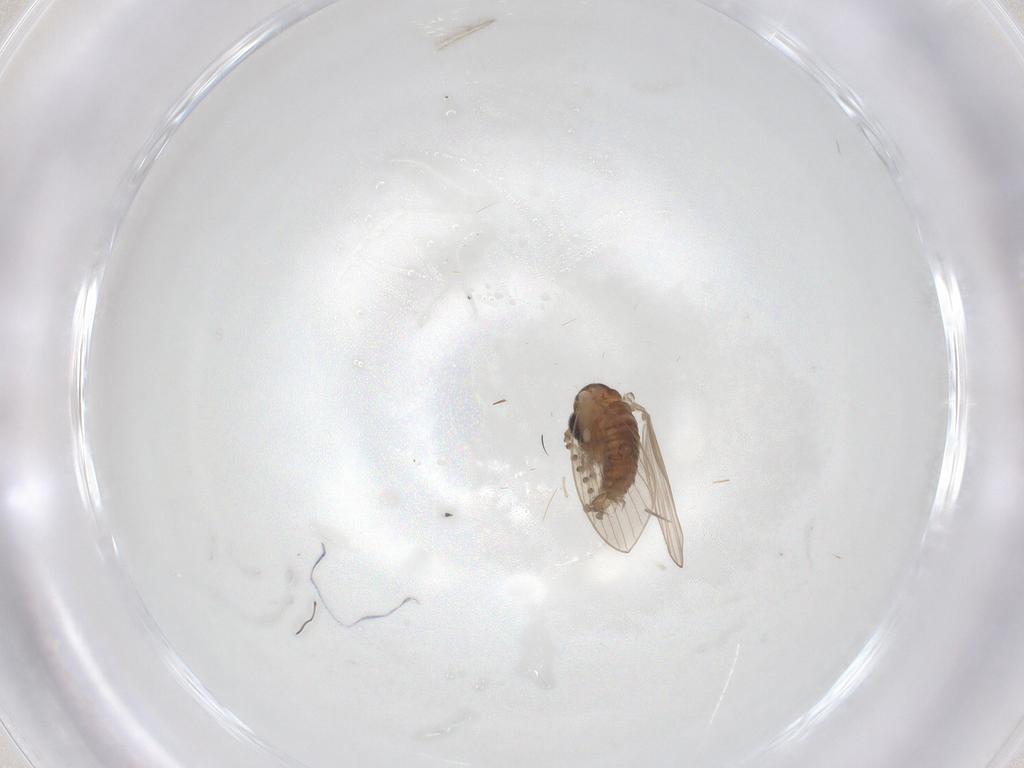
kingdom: Animalia
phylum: Arthropoda
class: Insecta
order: Diptera
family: Psychodidae
